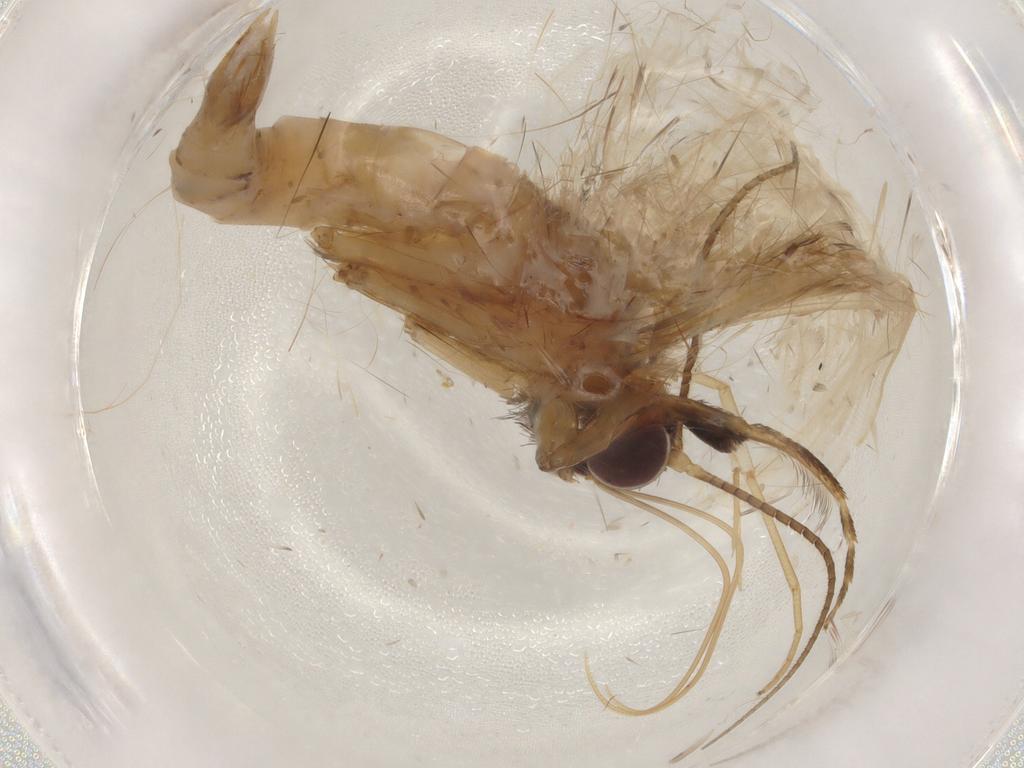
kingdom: Animalia
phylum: Arthropoda
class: Insecta
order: Lepidoptera
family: Erebidae
